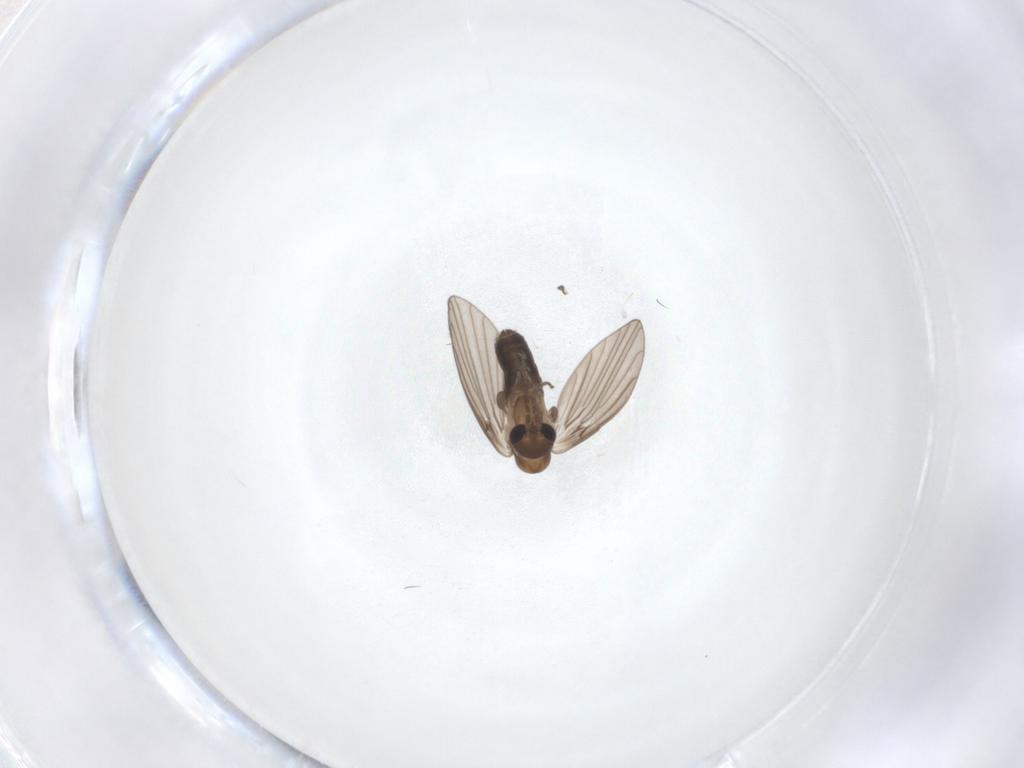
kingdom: Animalia
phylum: Arthropoda
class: Insecta
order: Diptera
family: Psychodidae
